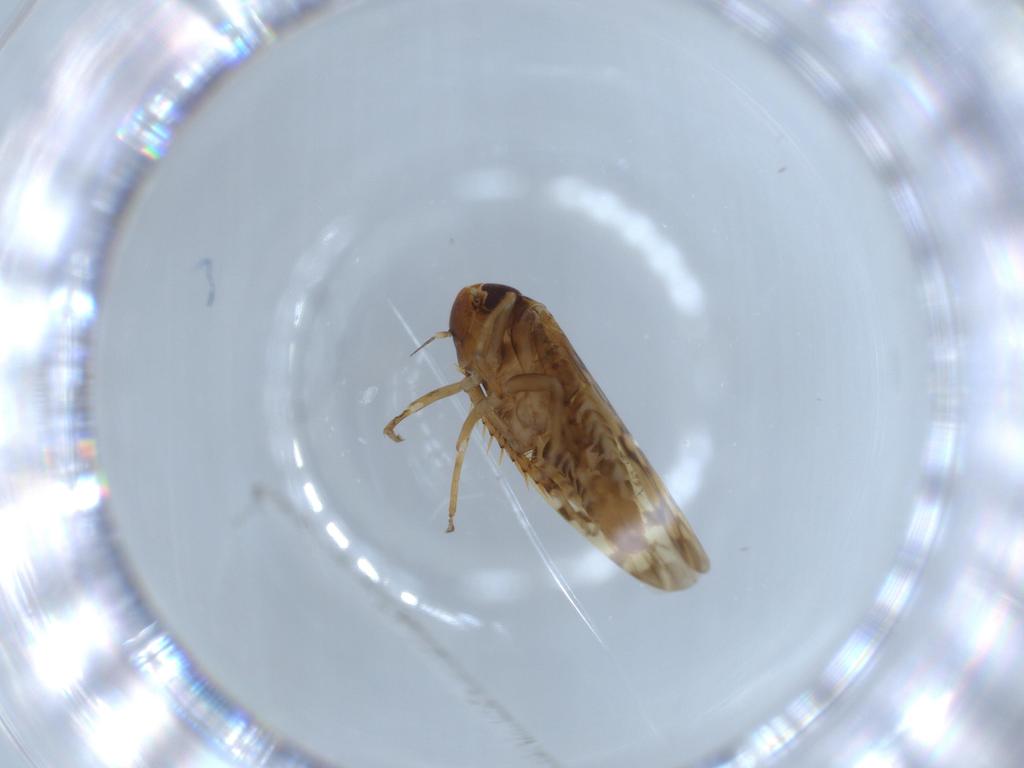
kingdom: Animalia
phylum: Arthropoda
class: Insecta
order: Hemiptera
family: Cicadellidae
